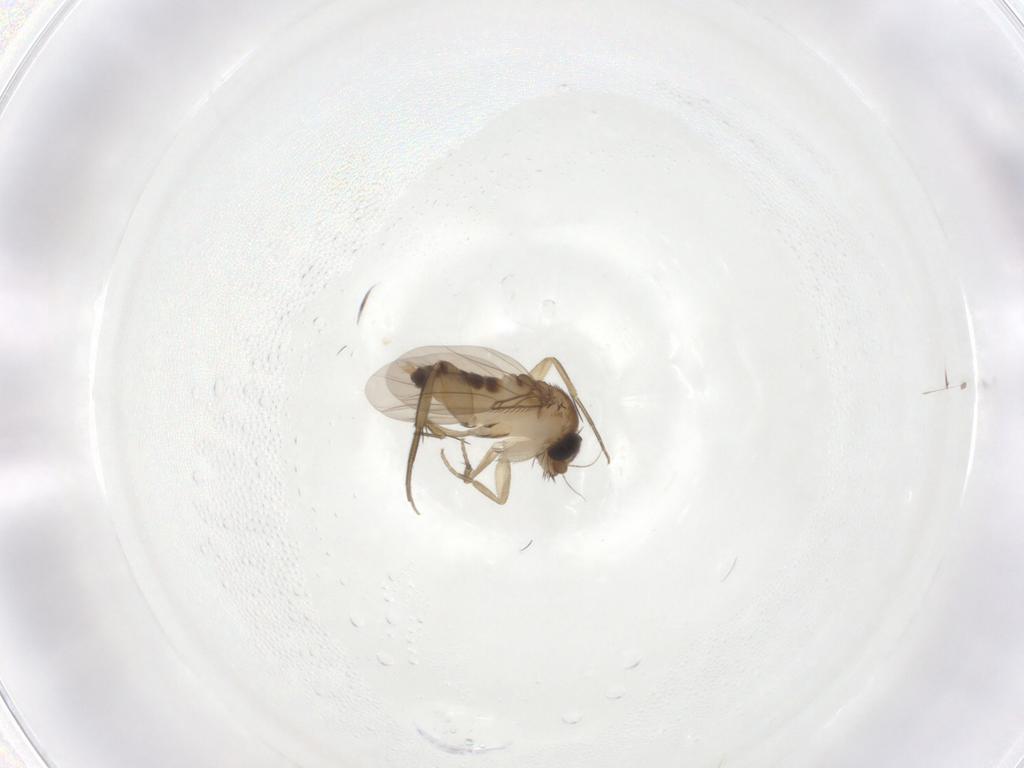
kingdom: Animalia
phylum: Arthropoda
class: Insecta
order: Diptera
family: Phoridae
